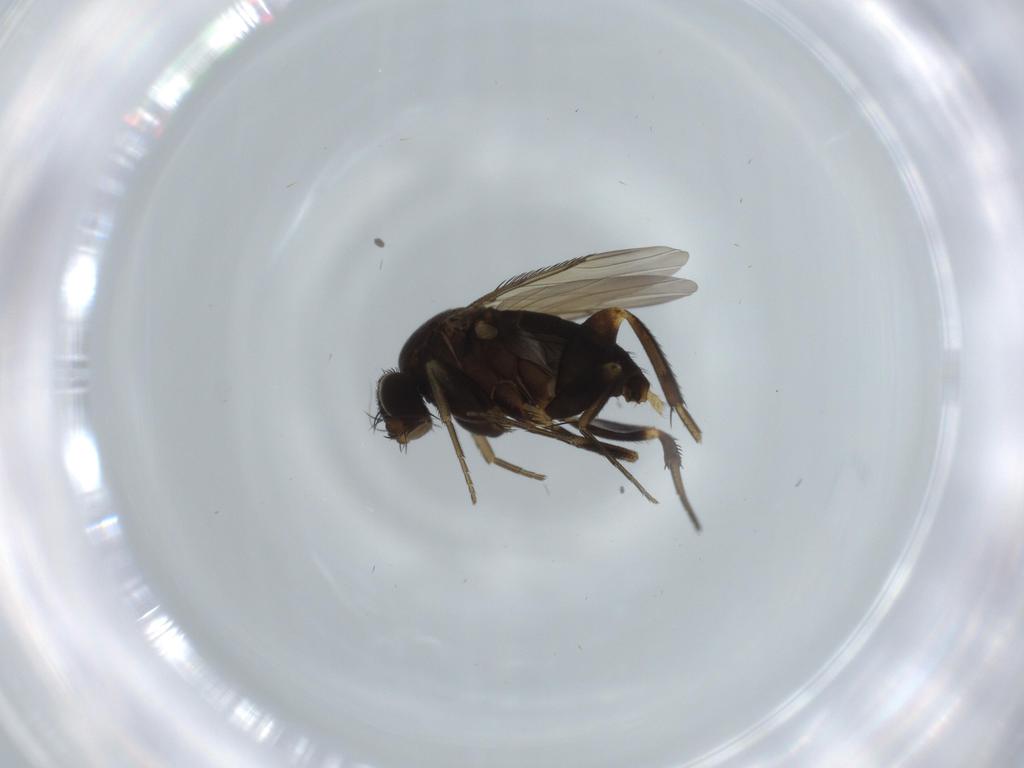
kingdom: Animalia
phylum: Arthropoda
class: Insecta
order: Diptera
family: Phoridae
